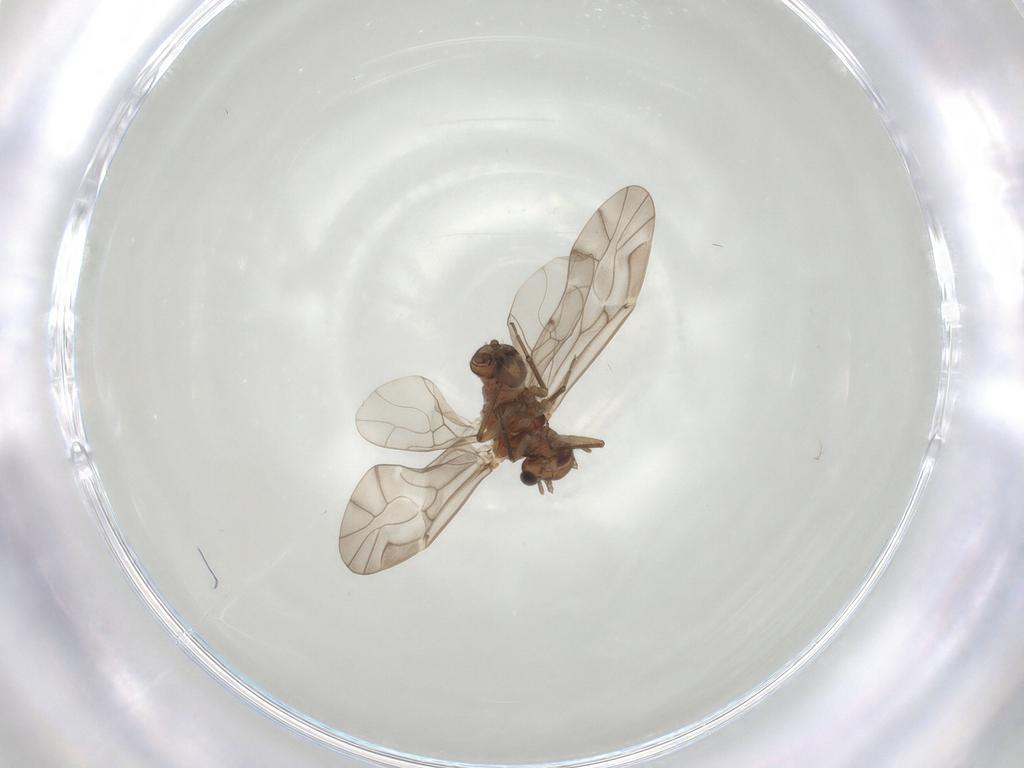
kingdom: Animalia
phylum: Arthropoda
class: Insecta
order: Psocodea
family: Peripsocidae
